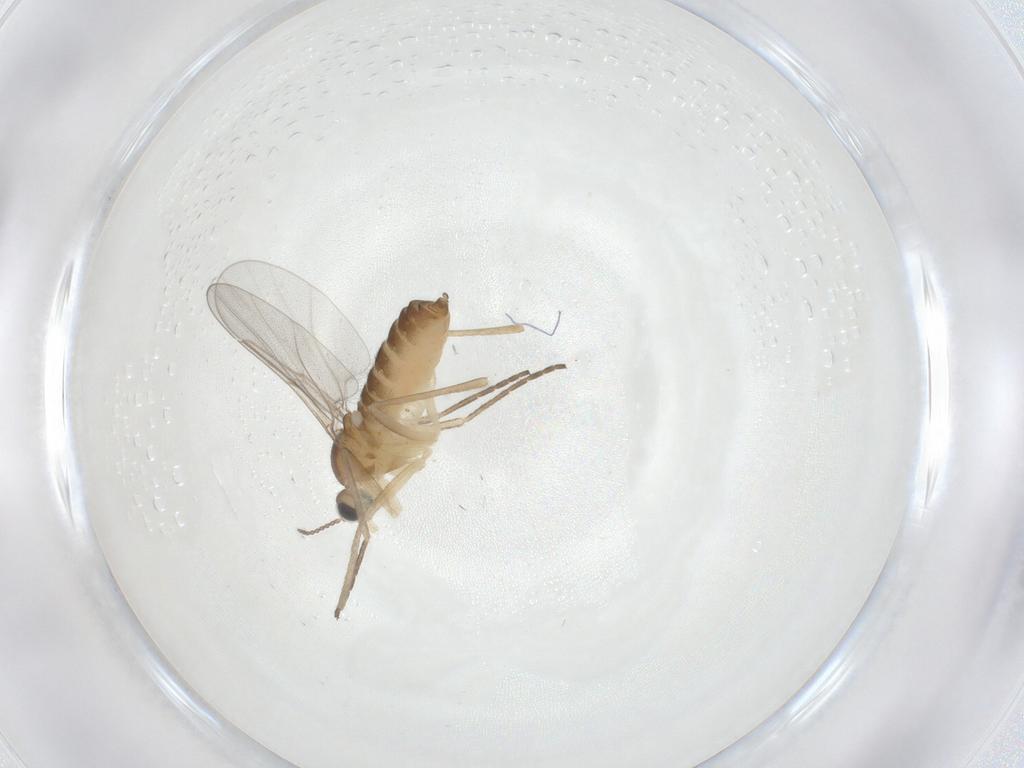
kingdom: Animalia
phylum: Arthropoda
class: Insecta
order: Diptera
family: Cecidomyiidae
